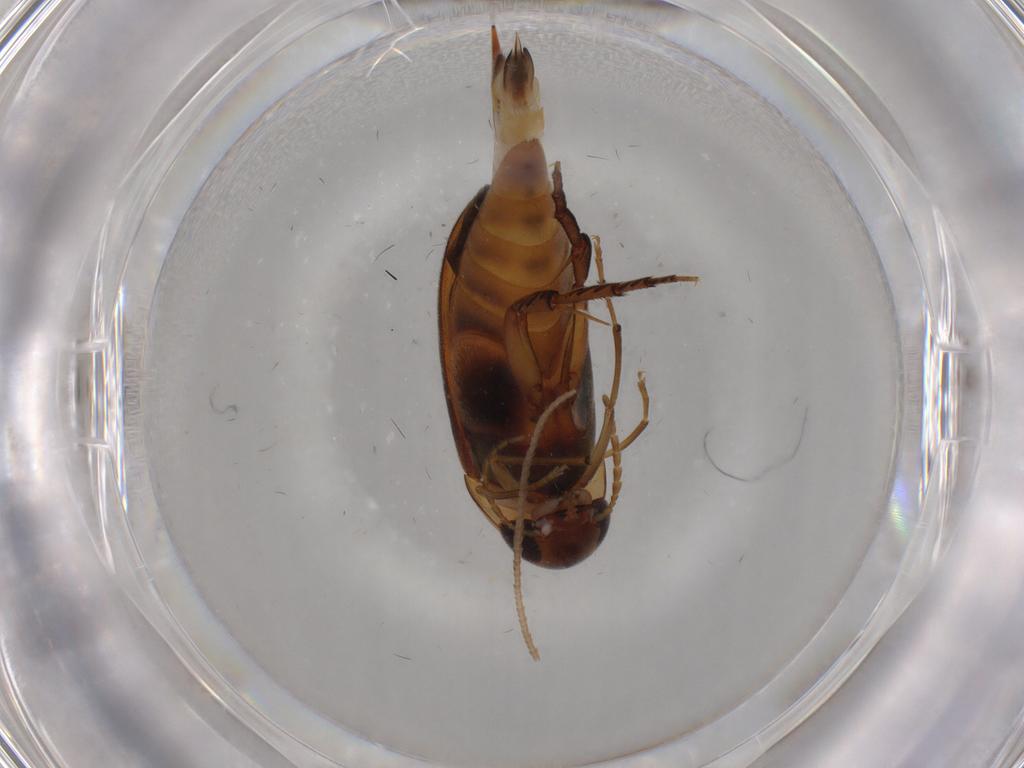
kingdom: Animalia
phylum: Arthropoda
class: Insecta
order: Coleoptera
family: Mordellidae
